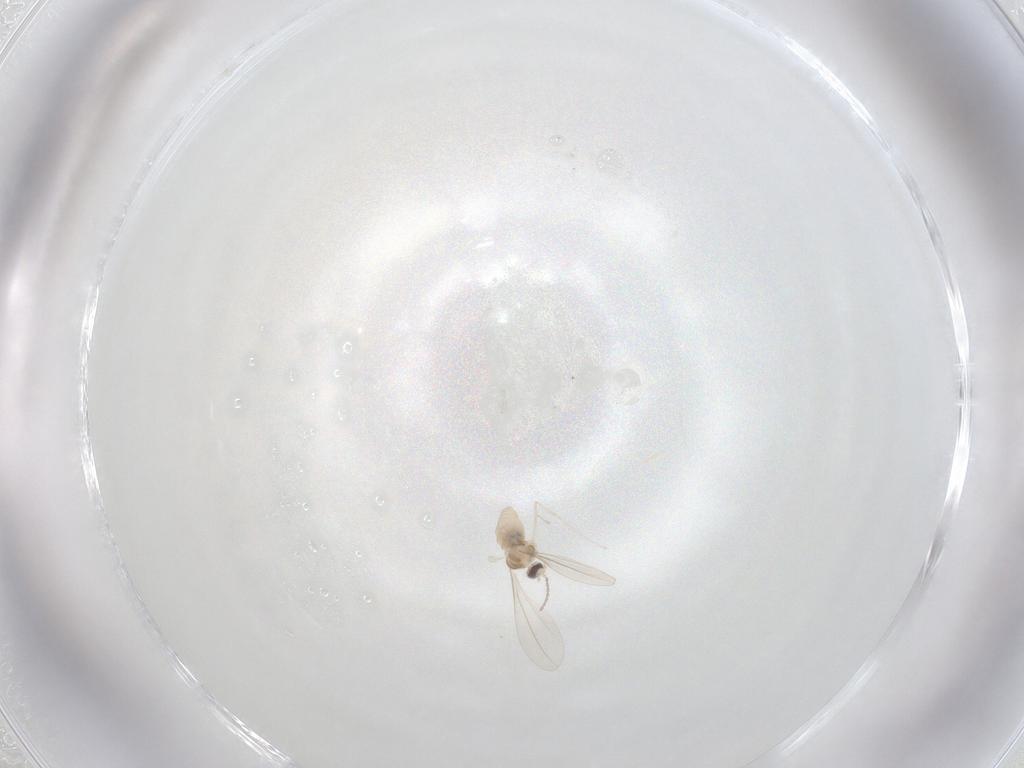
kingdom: Animalia
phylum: Arthropoda
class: Insecta
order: Diptera
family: Cecidomyiidae
